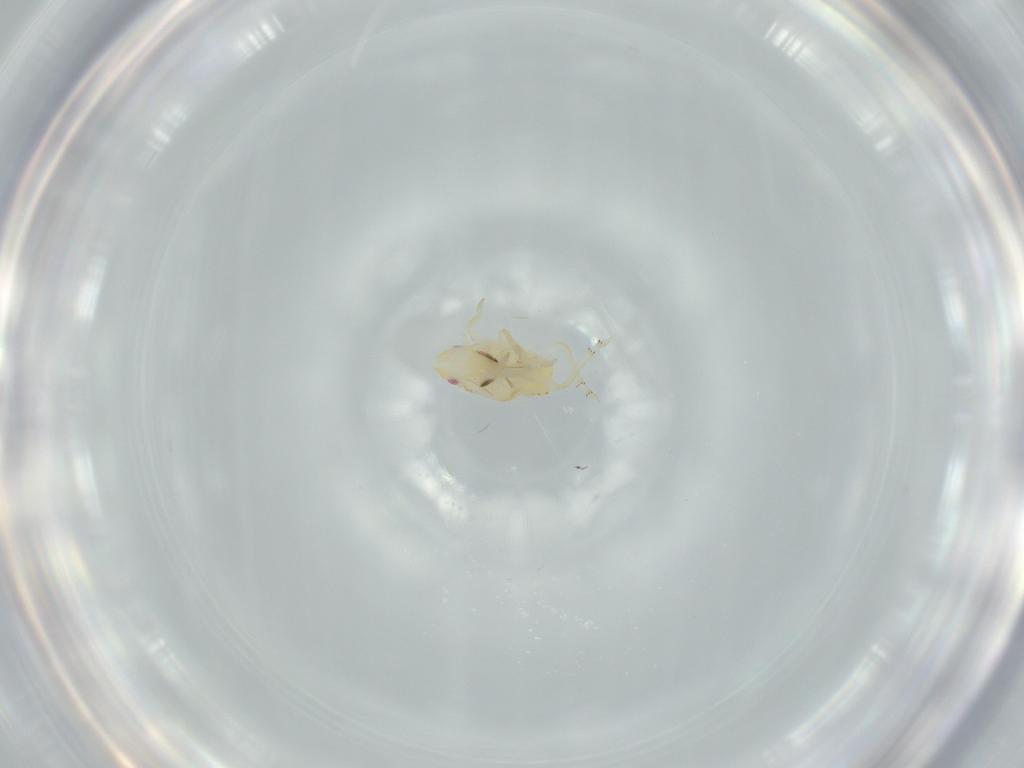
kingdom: Animalia
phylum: Arthropoda
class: Insecta
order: Hemiptera
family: Flatidae
